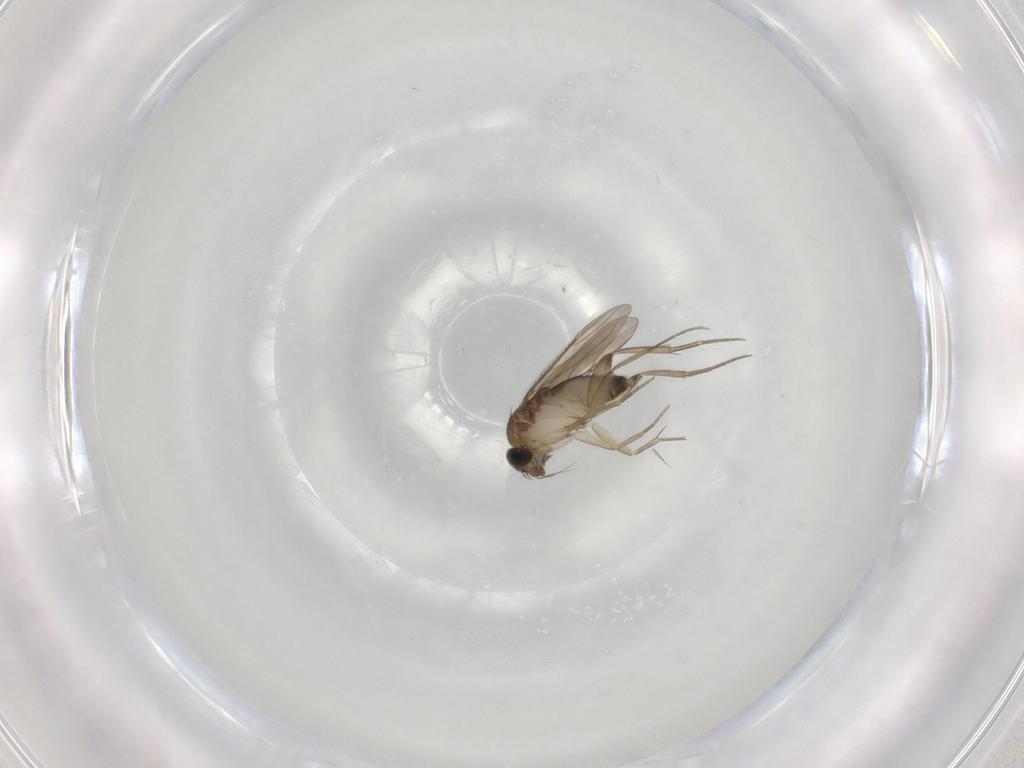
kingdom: Animalia
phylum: Arthropoda
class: Insecta
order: Diptera
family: Phoridae
